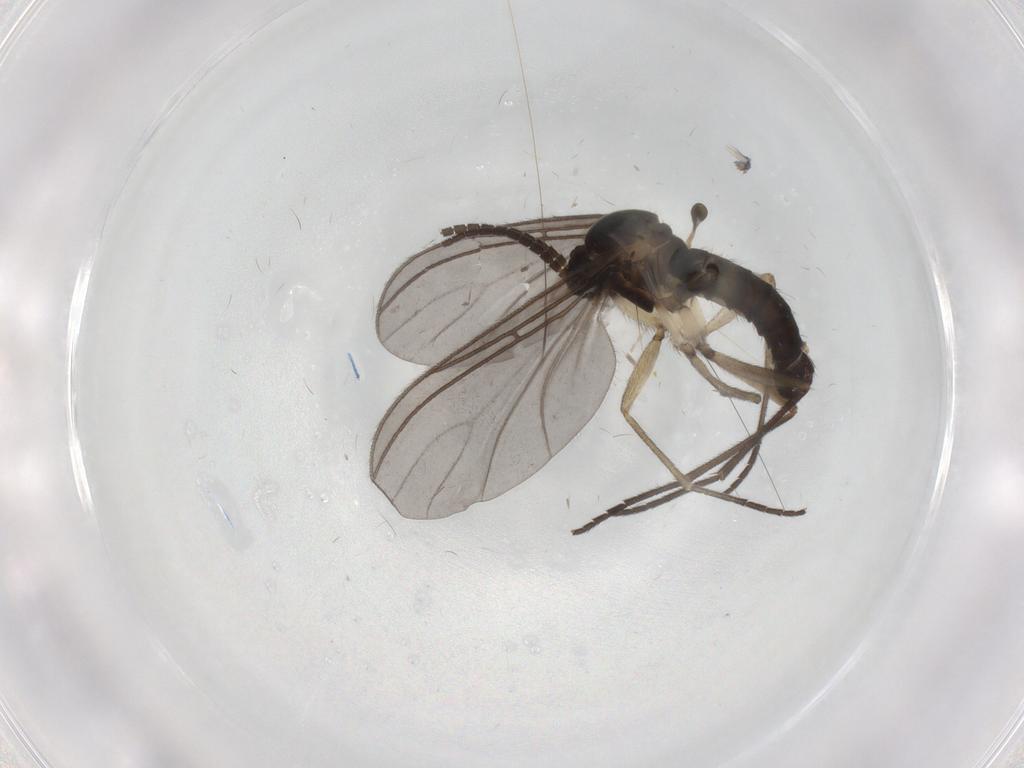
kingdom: Animalia
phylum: Arthropoda
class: Insecta
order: Diptera
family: Sciaridae
